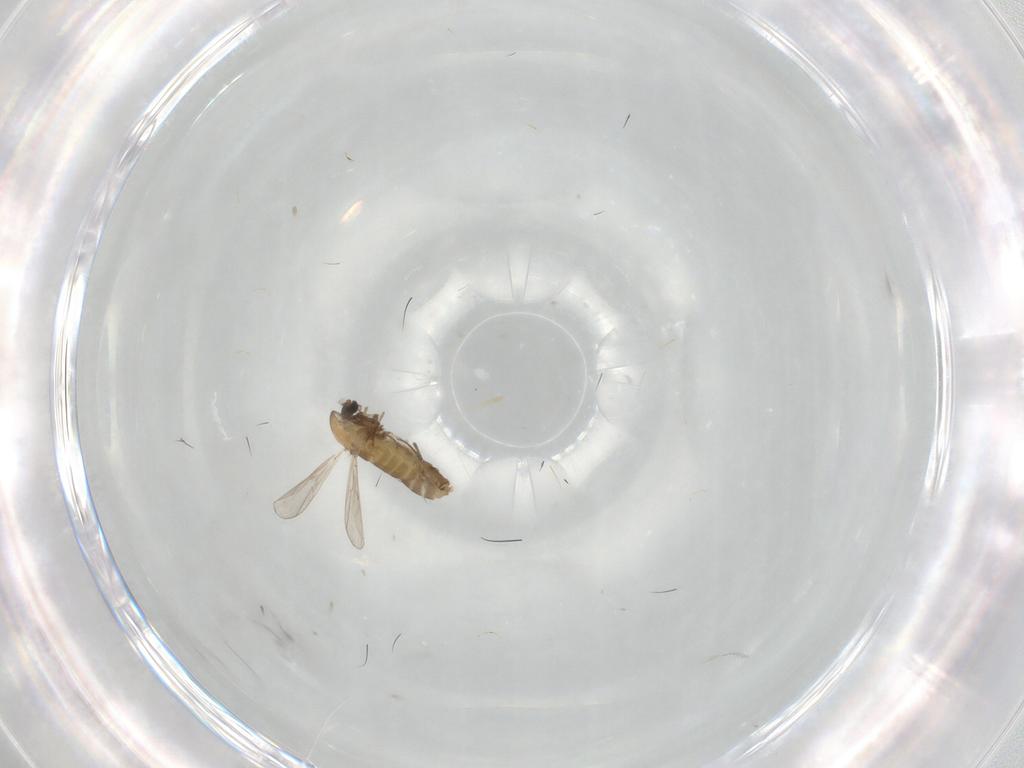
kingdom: Animalia
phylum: Arthropoda
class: Insecta
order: Diptera
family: Chironomidae
